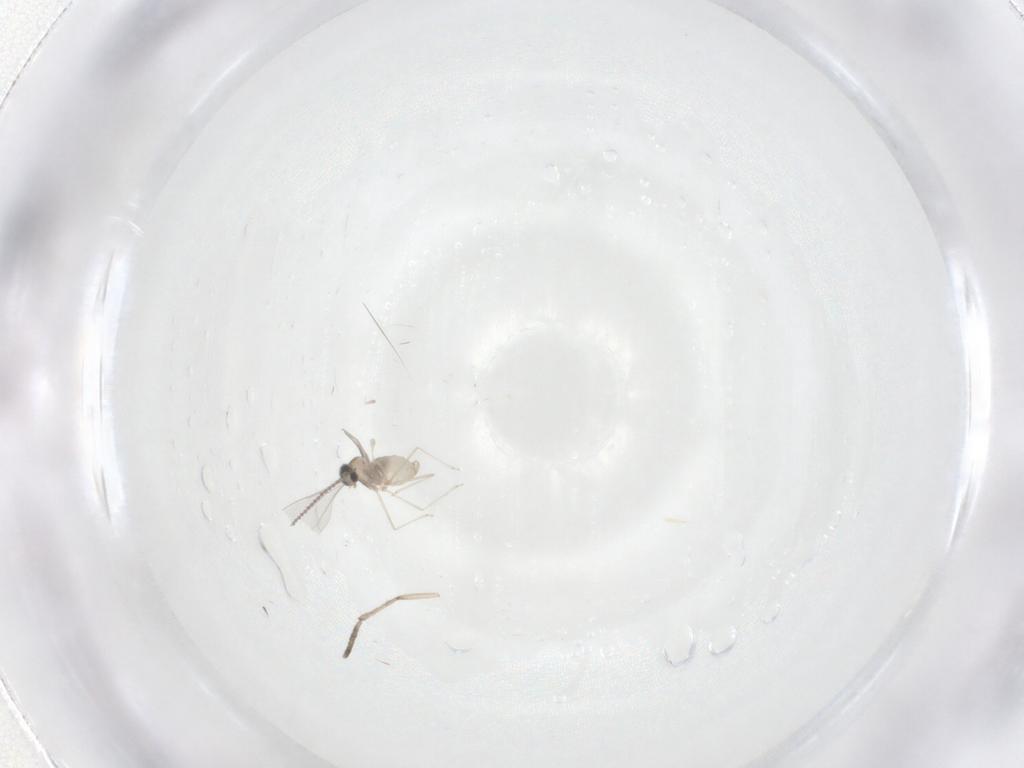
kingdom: Animalia
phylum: Arthropoda
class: Insecta
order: Diptera
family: Cecidomyiidae
